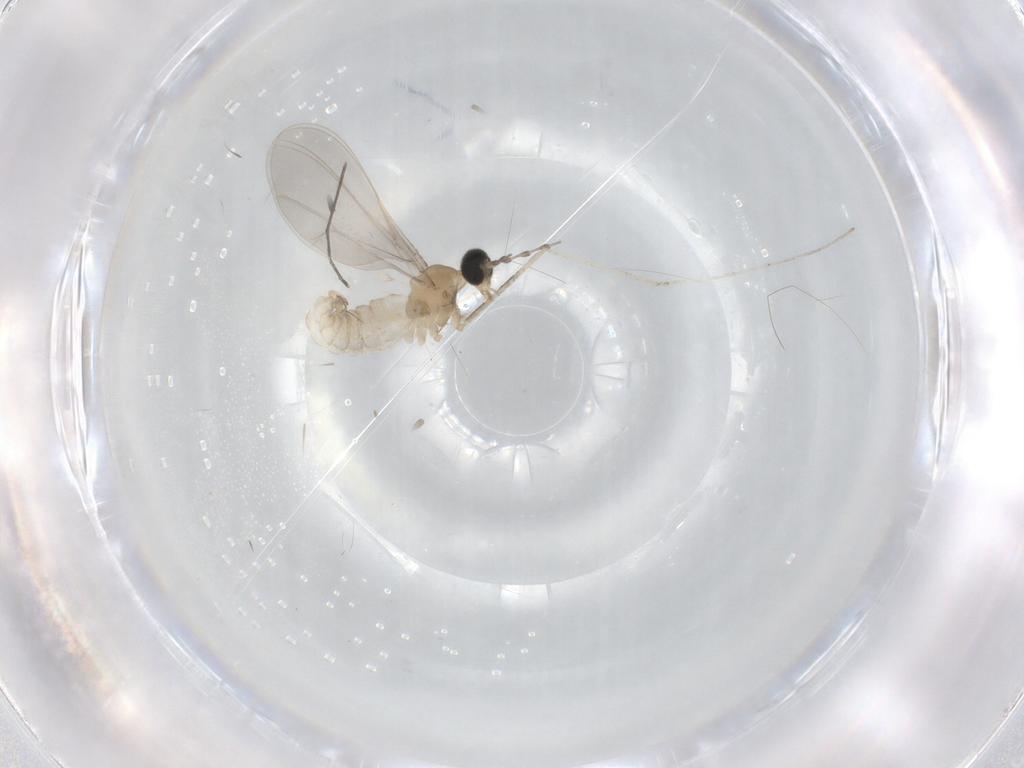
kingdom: Animalia
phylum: Arthropoda
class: Insecta
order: Diptera
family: Cecidomyiidae
